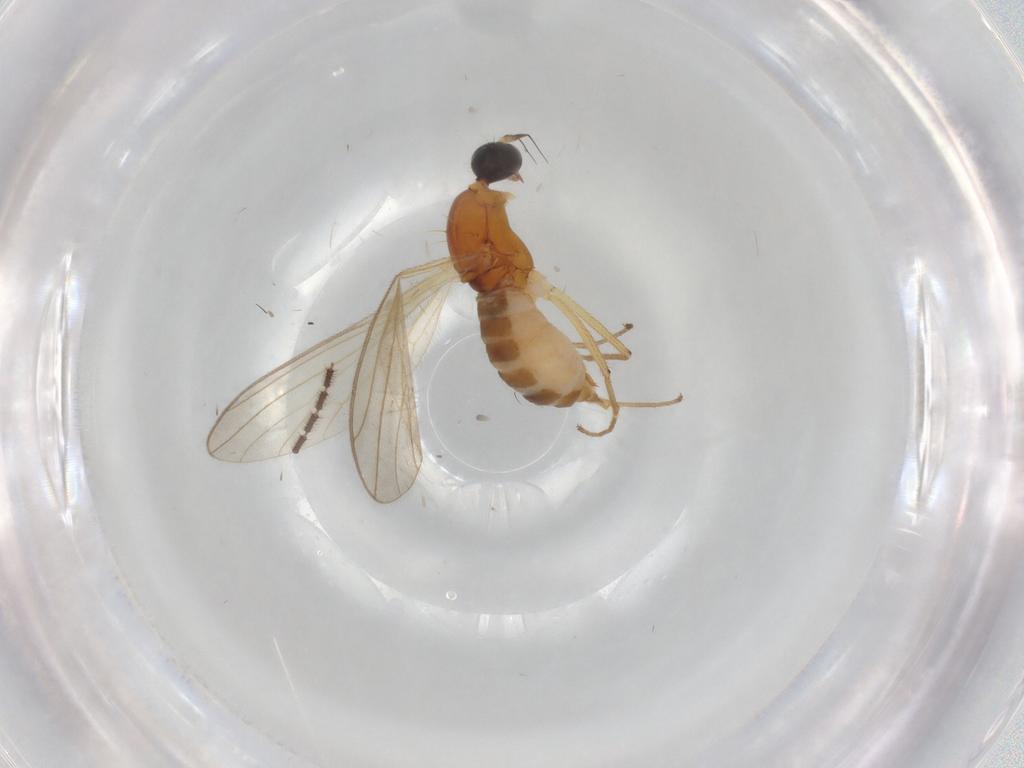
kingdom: Animalia
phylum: Arthropoda
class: Insecta
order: Diptera
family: Empididae
